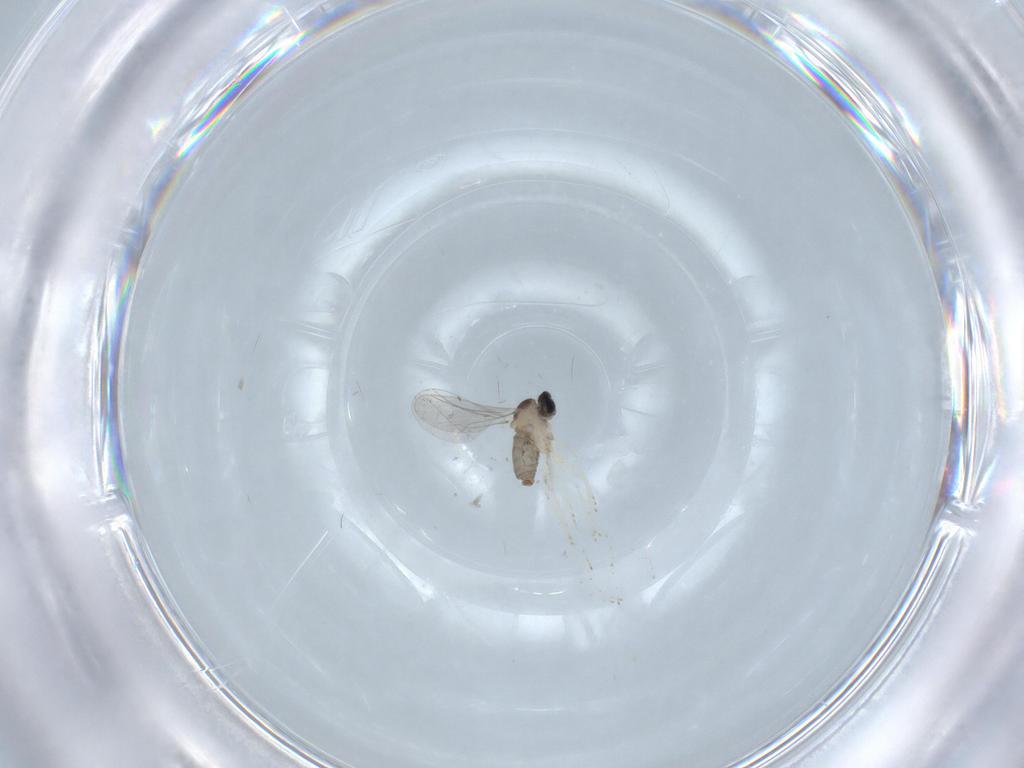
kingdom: Animalia
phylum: Arthropoda
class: Insecta
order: Diptera
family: Cecidomyiidae
